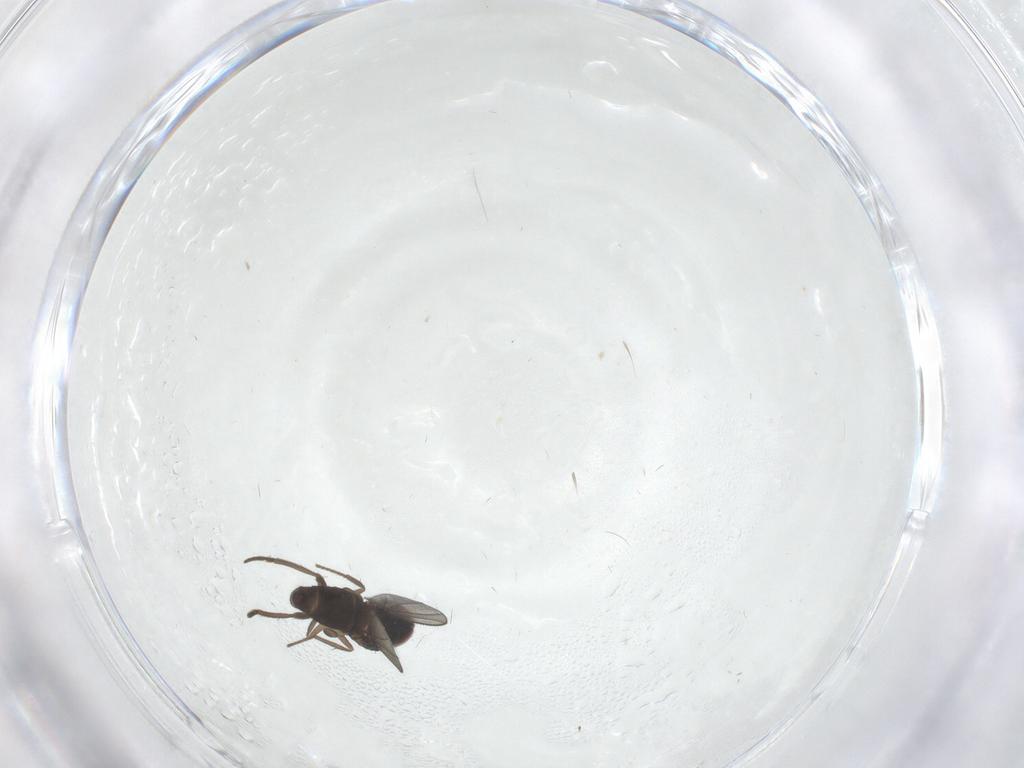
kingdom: Animalia
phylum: Arthropoda
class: Insecta
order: Diptera
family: Dolichopodidae
